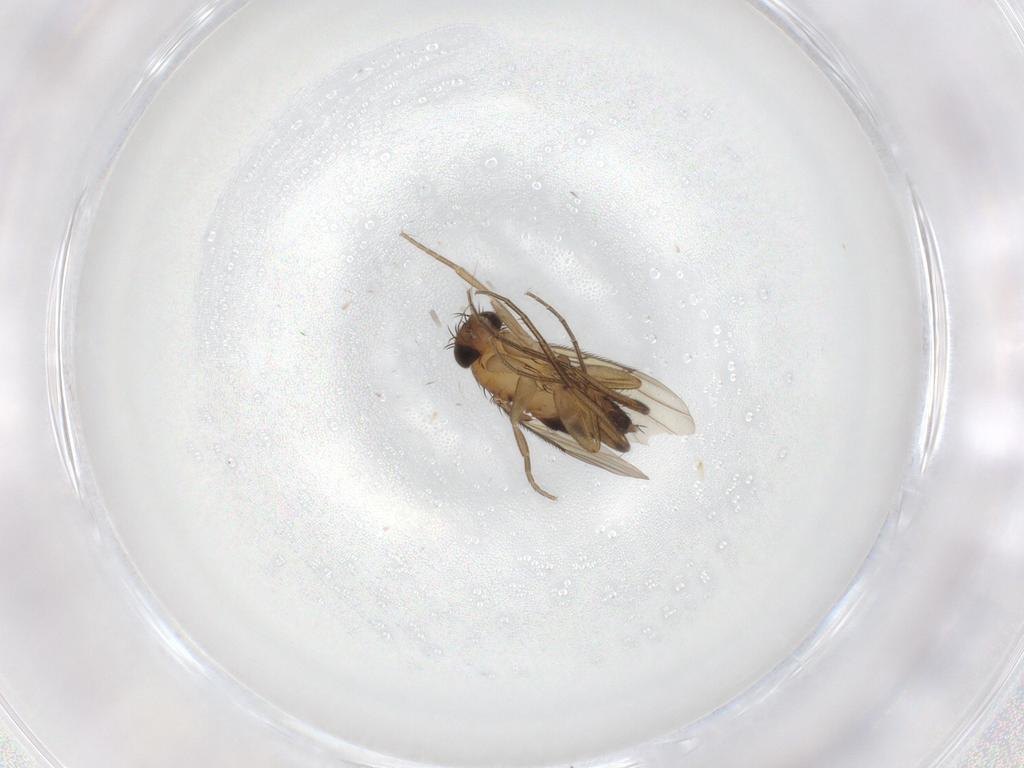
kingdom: Animalia
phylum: Arthropoda
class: Insecta
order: Diptera
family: Phoridae
